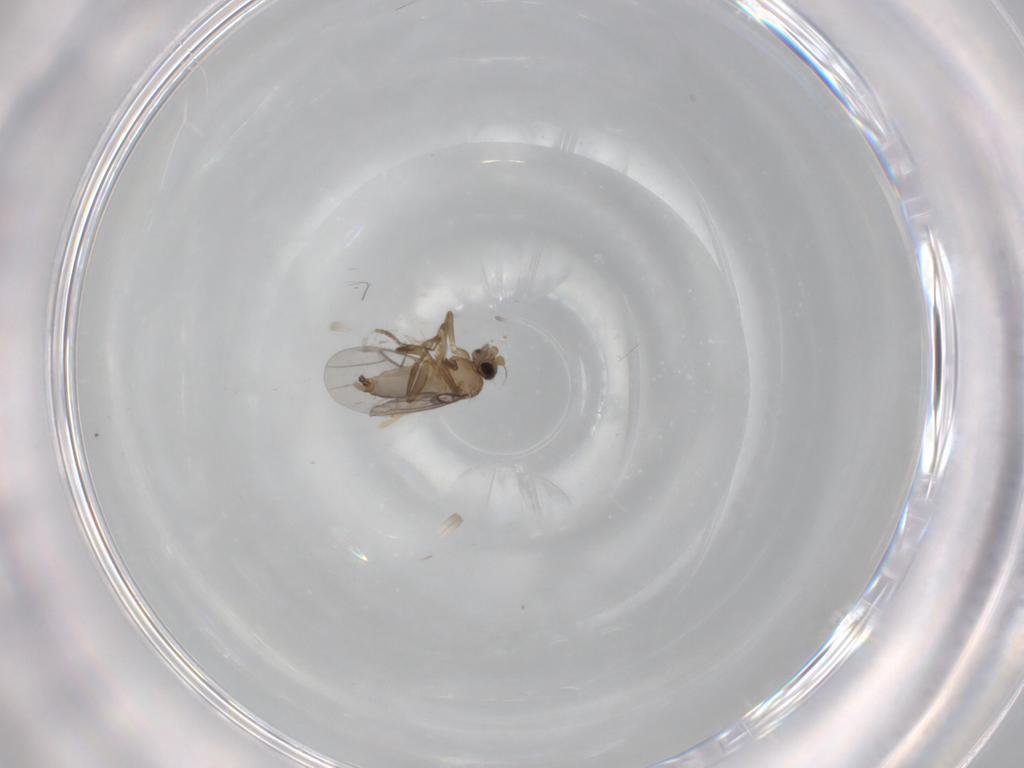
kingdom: Animalia
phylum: Arthropoda
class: Insecta
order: Diptera
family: Psychodidae
